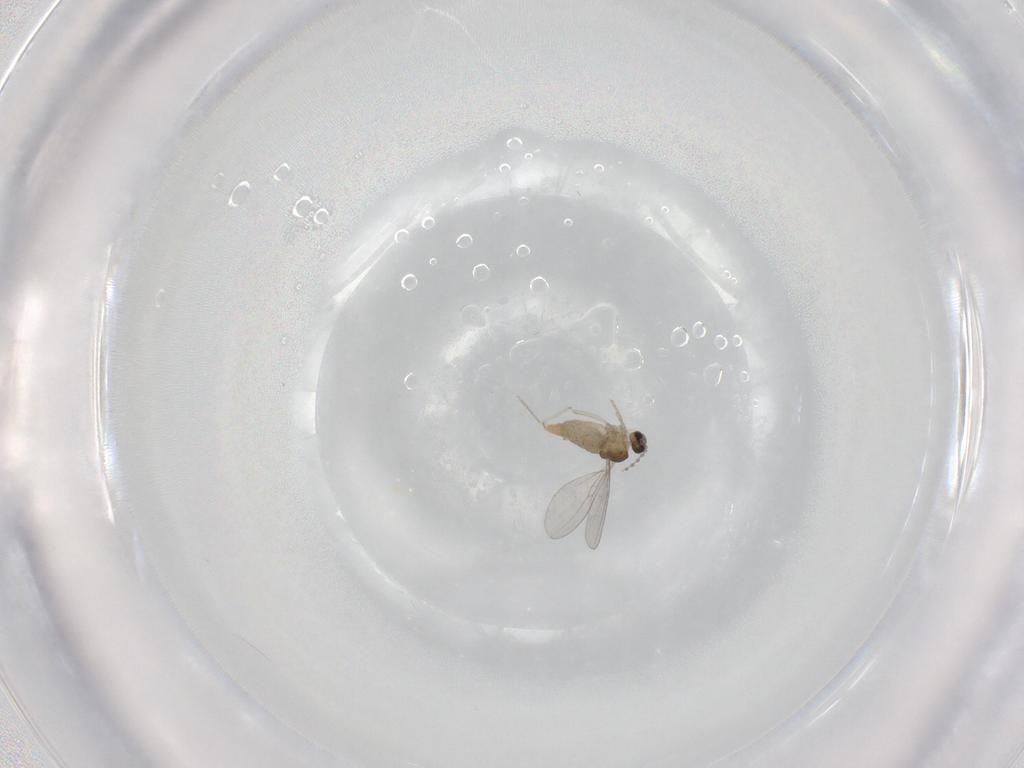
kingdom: Animalia
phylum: Arthropoda
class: Insecta
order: Diptera
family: Cecidomyiidae
